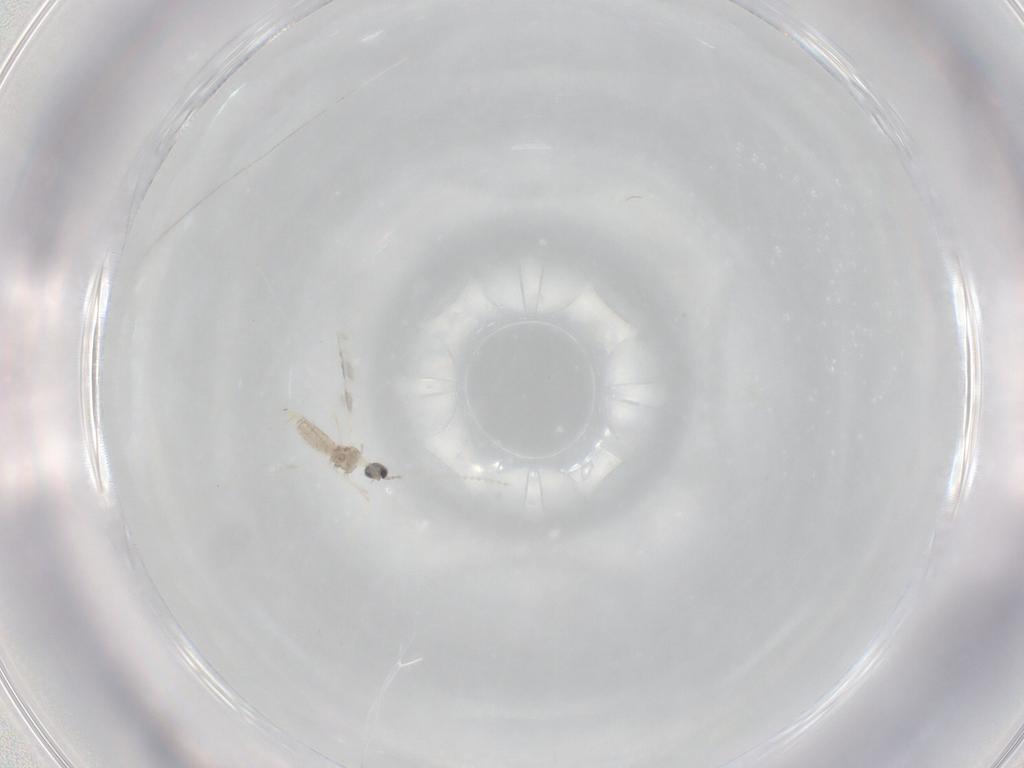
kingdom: Animalia
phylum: Arthropoda
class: Insecta
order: Diptera
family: Cecidomyiidae
